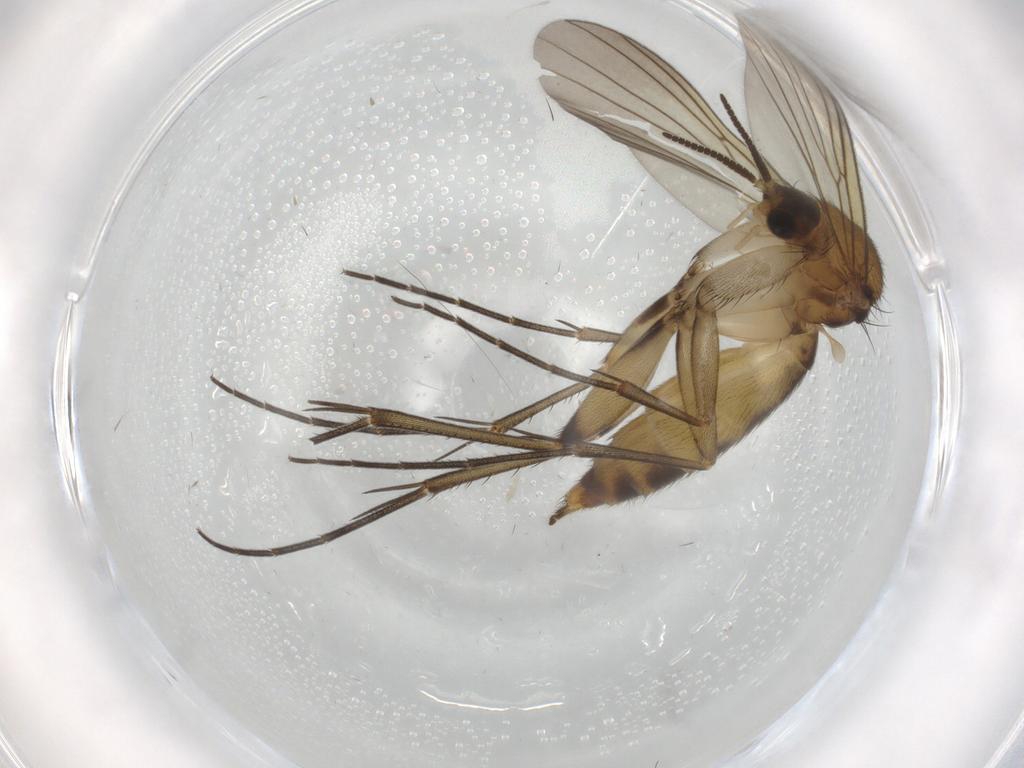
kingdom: Animalia
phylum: Arthropoda
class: Insecta
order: Diptera
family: Mycetophilidae
